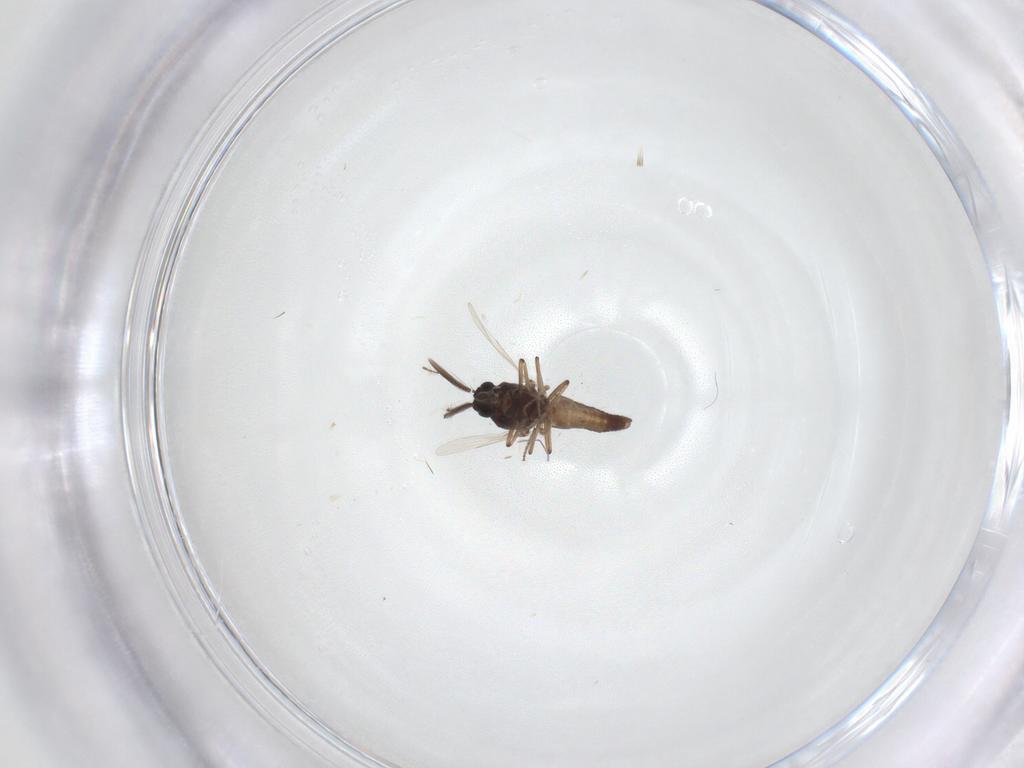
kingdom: Animalia
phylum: Arthropoda
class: Insecta
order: Diptera
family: Ceratopogonidae
